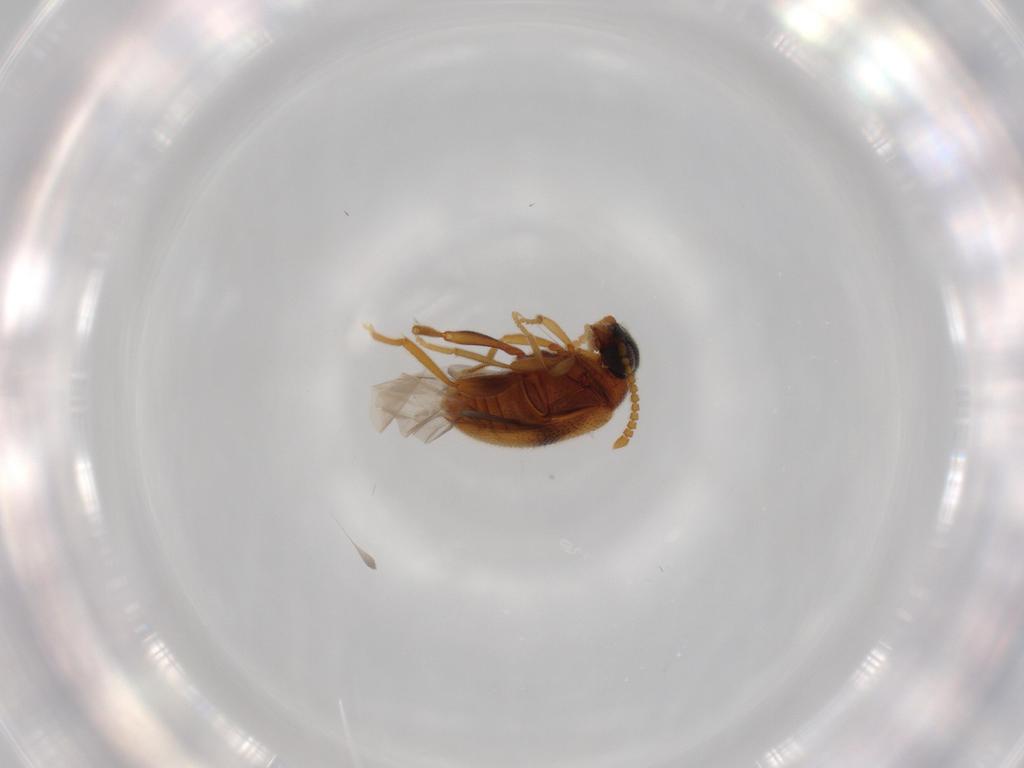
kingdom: Animalia
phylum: Arthropoda
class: Insecta
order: Coleoptera
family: Aderidae
